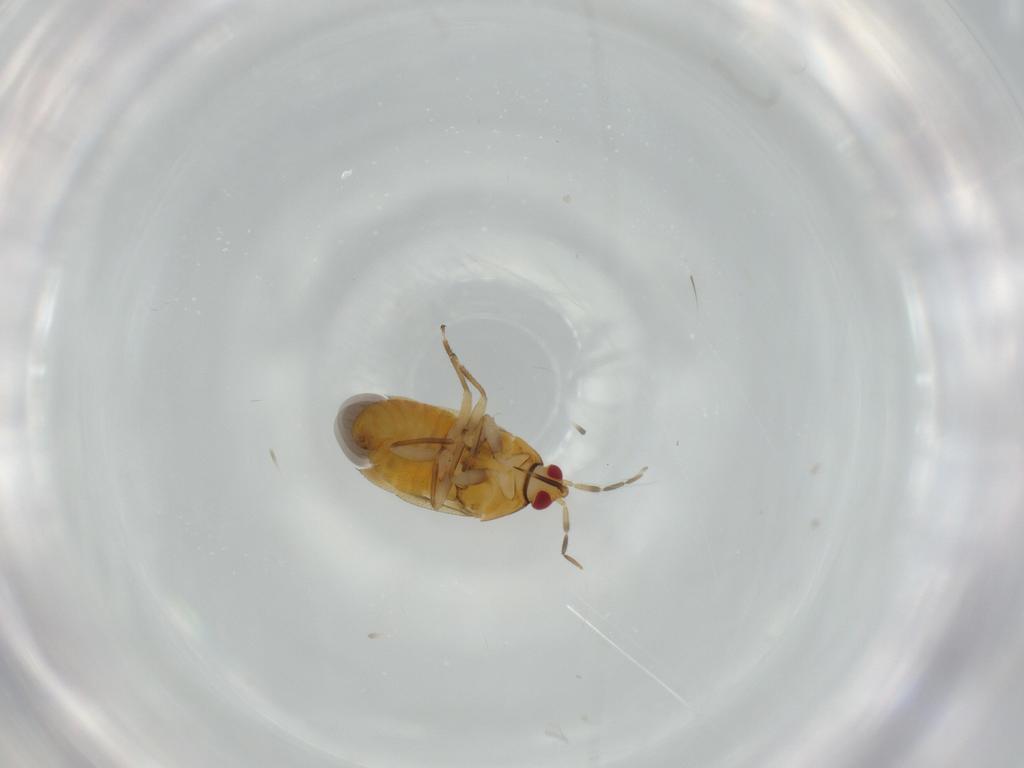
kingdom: Animalia
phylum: Arthropoda
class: Insecta
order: Hemiptera
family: Anthocoridae
